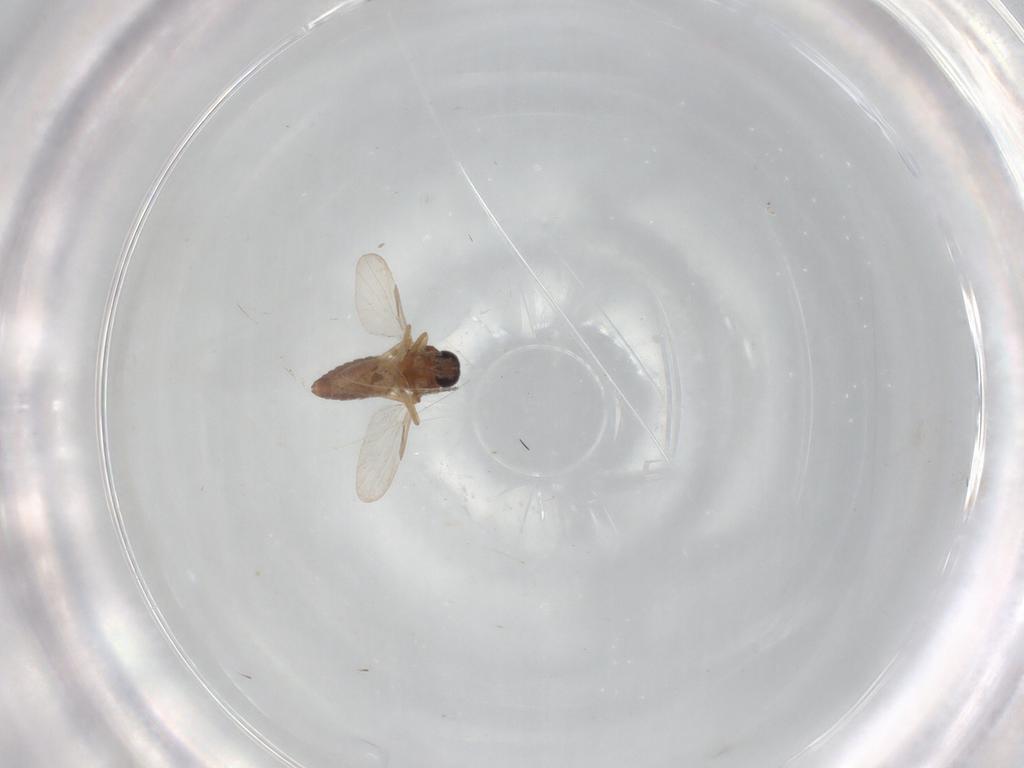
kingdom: Animalia
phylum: Arthropoda
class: Insecta
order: Diptera
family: Ceratopogonidae
